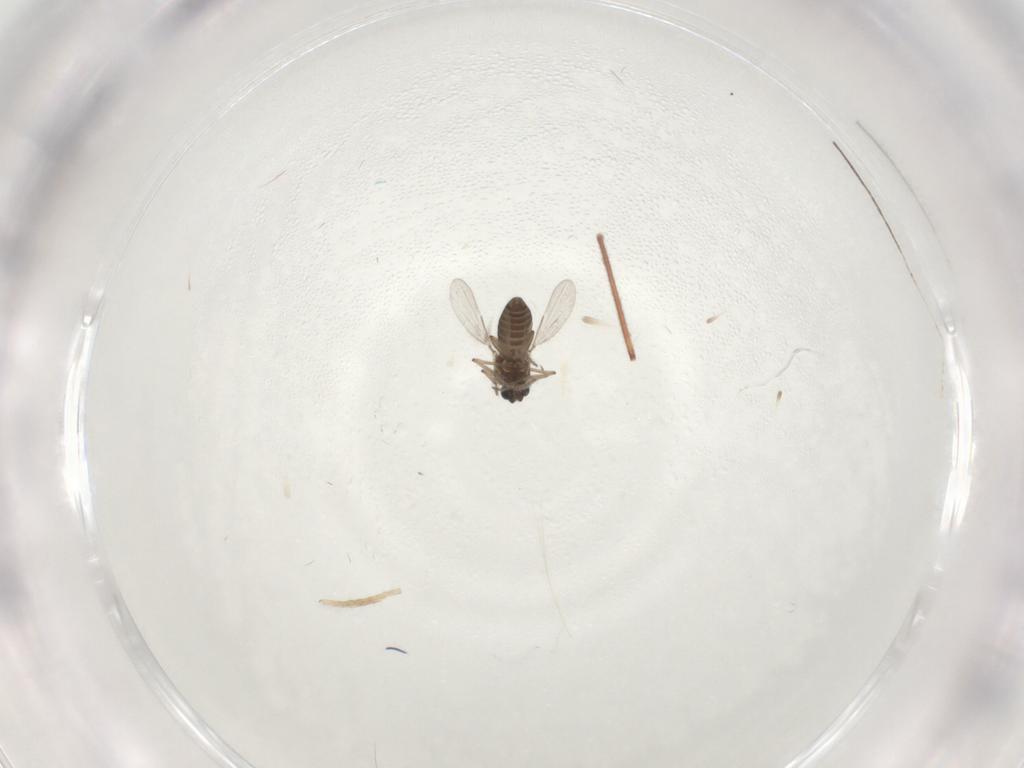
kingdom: Animalia
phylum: Arthropoda
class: Insecta
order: Diptera
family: Ceratopogonidae
